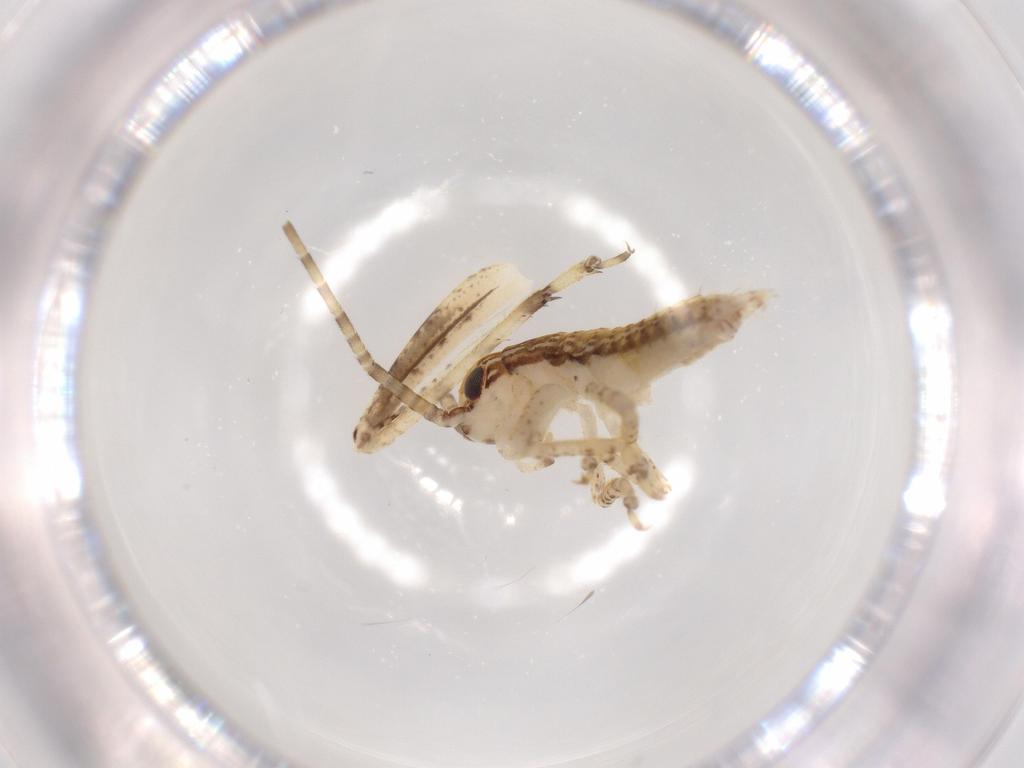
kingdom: Animalia
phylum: Arthropoda
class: Insecta
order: Orthoptera
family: Gryllidae
